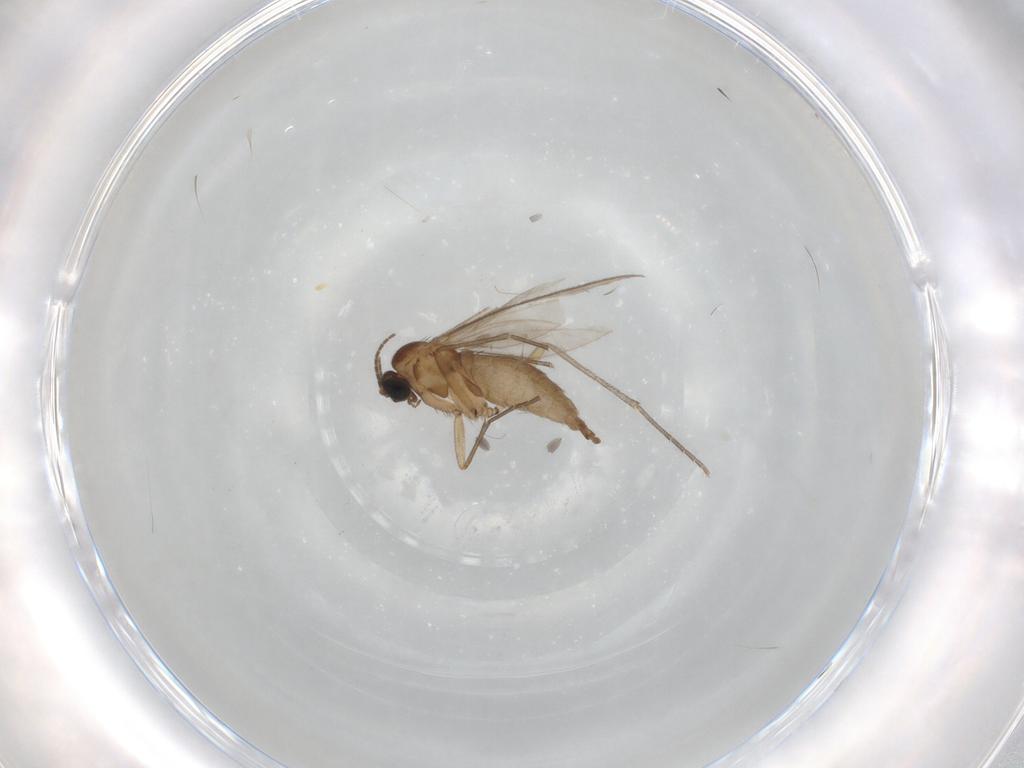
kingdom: Animalia
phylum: Arthropoda
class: Insecta
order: Diptera
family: Sciaridae
